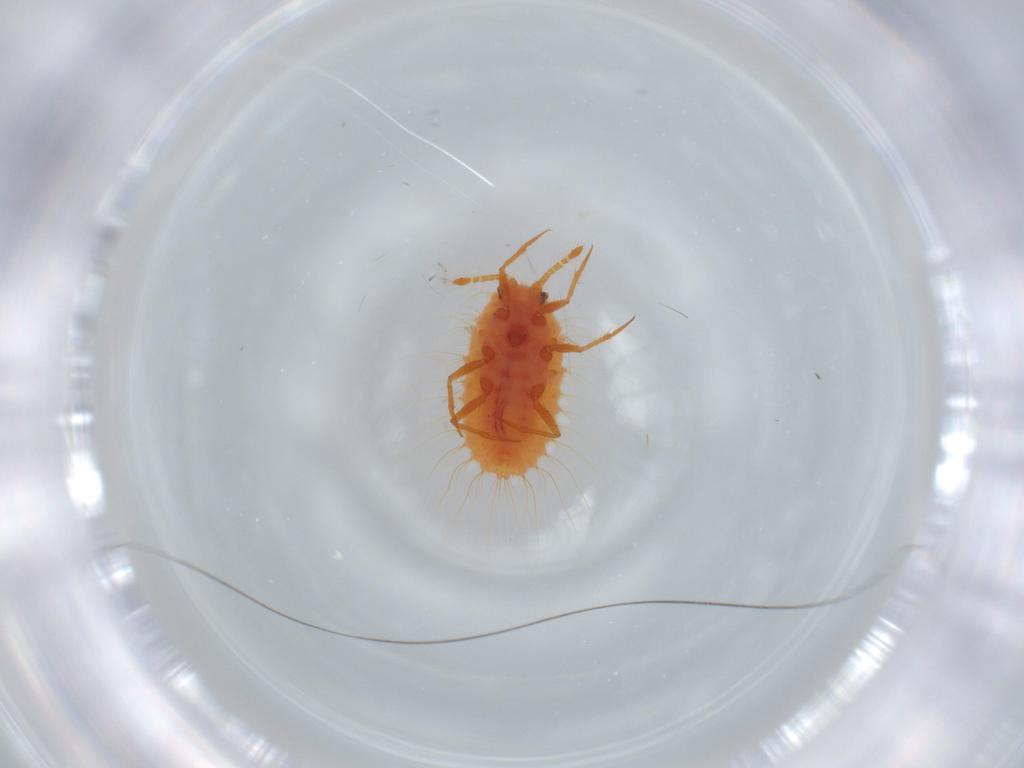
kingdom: Animalia
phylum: Arthropoda
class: Insecta
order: Hemiptera
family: Coccoidea_incertae_sedis
